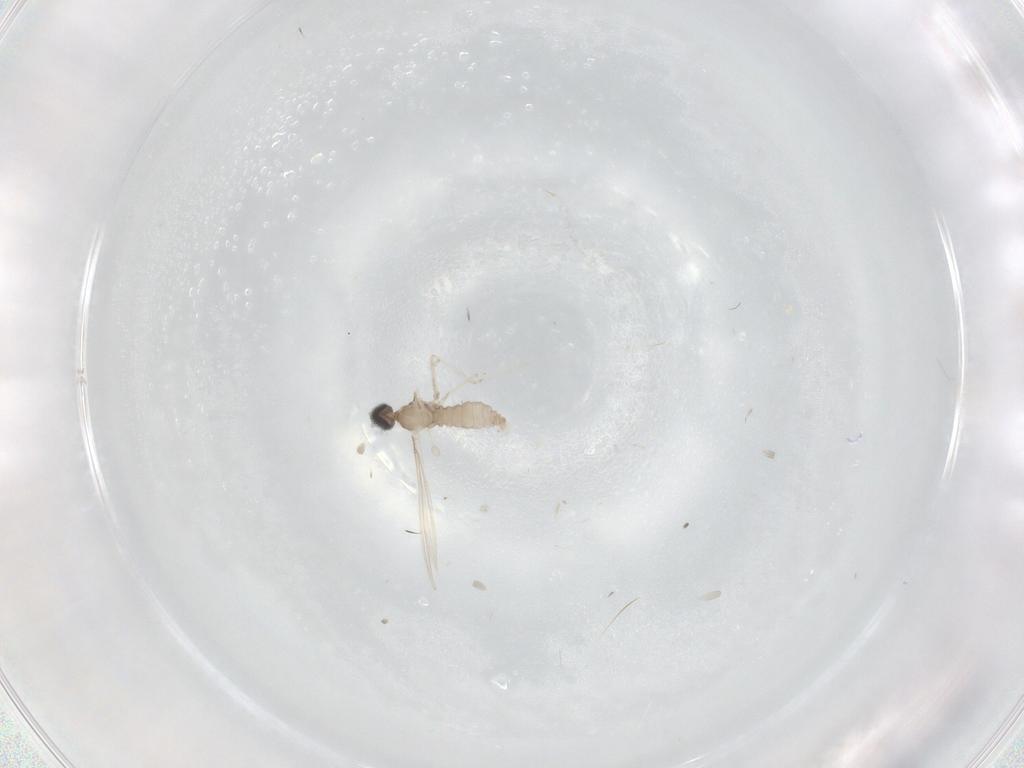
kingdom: Animalia
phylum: Arthropoda
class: Insecta
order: Diptera
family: Ceratopogonidae
